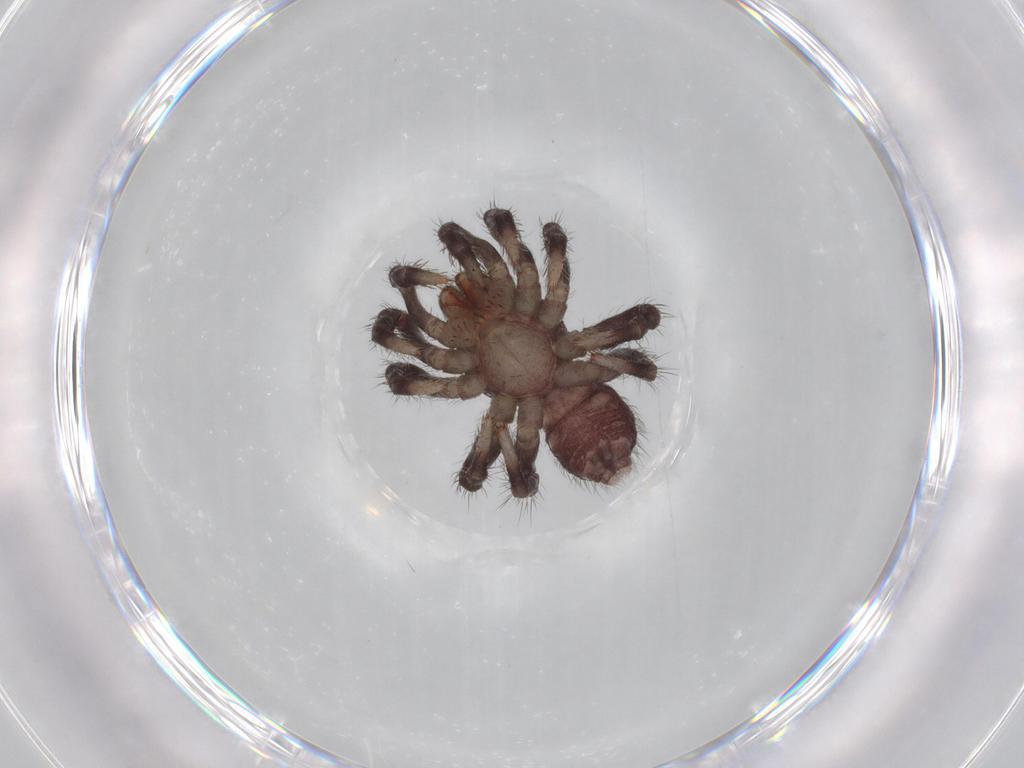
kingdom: Animalia
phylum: Arthropoda
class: Arachnida
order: Araneae
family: Halonoproctidae
